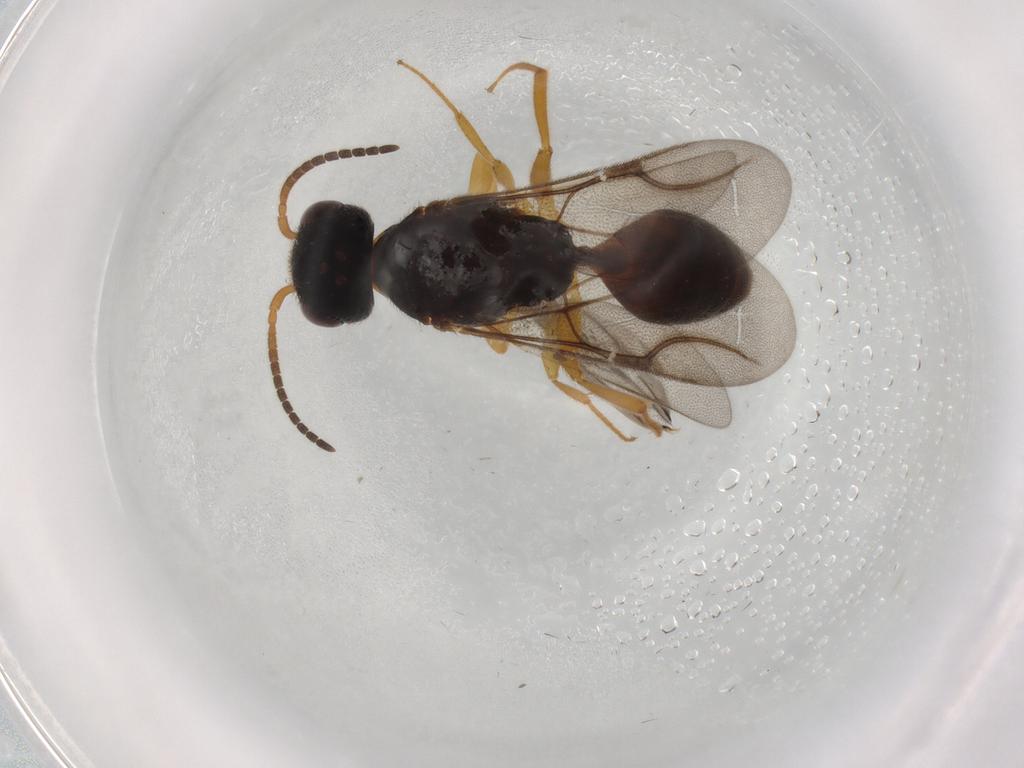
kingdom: Animalia
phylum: Arthropoda
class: Insecta
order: Hymenoptera
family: Bethylidae
